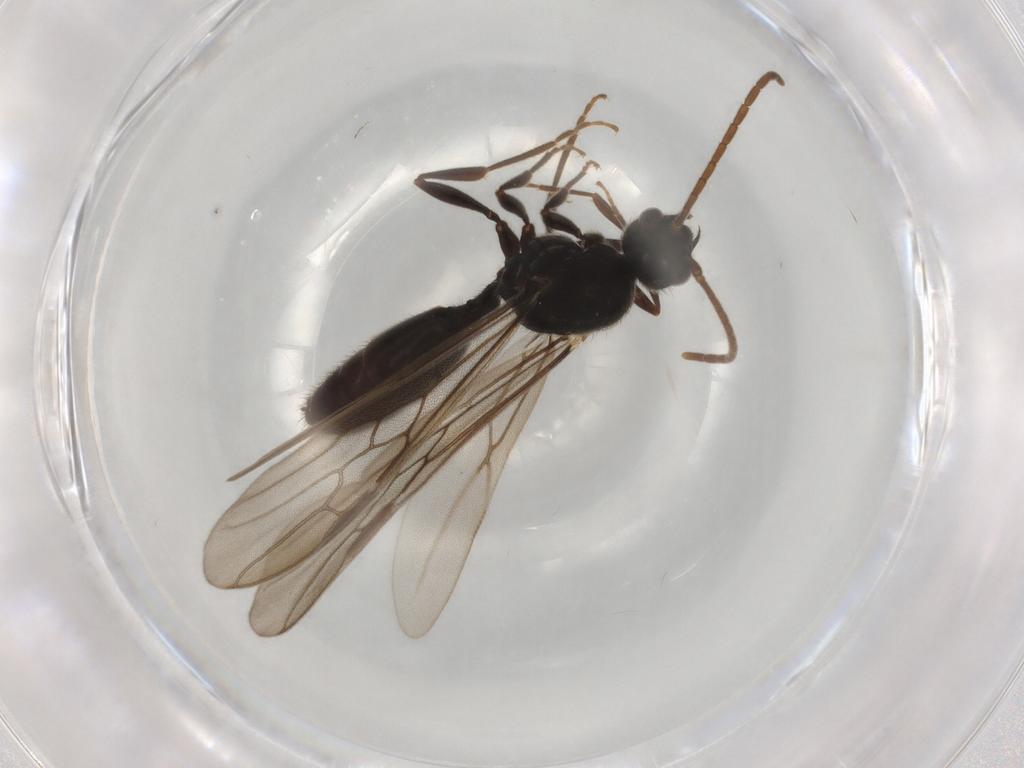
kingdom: Animalia
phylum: Arthropoda
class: Insecta
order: Hymenoptera
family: Formicidae
